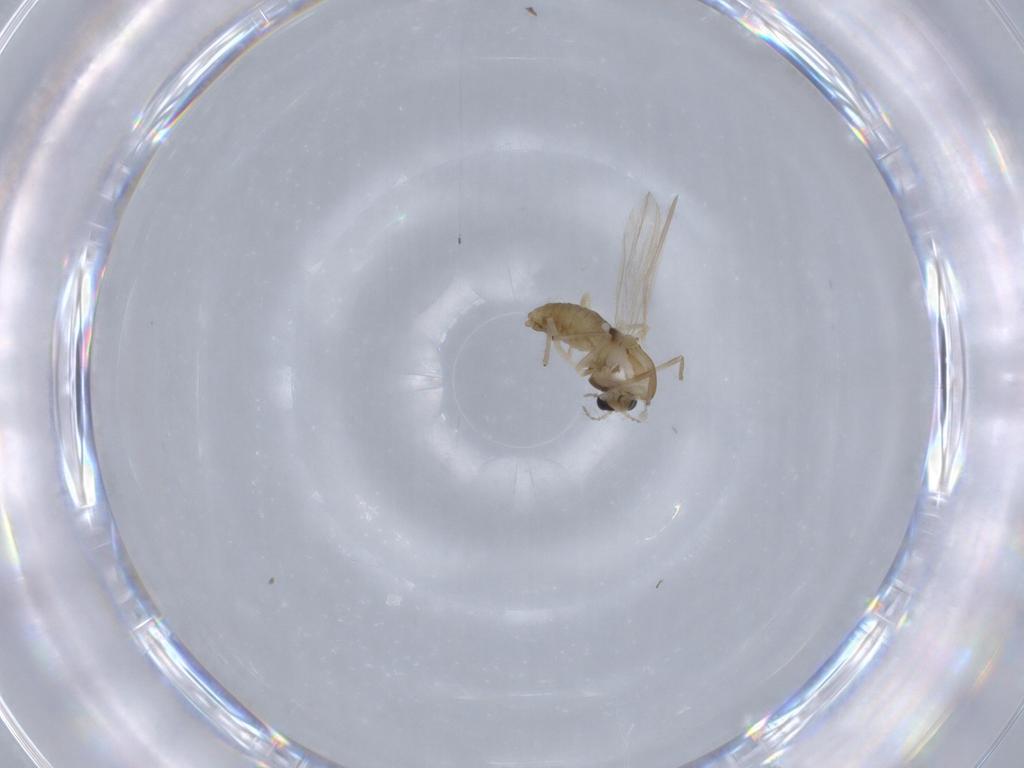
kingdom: Animalia
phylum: Arthropoda
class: Insecta
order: Diptera
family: Chironomidae
